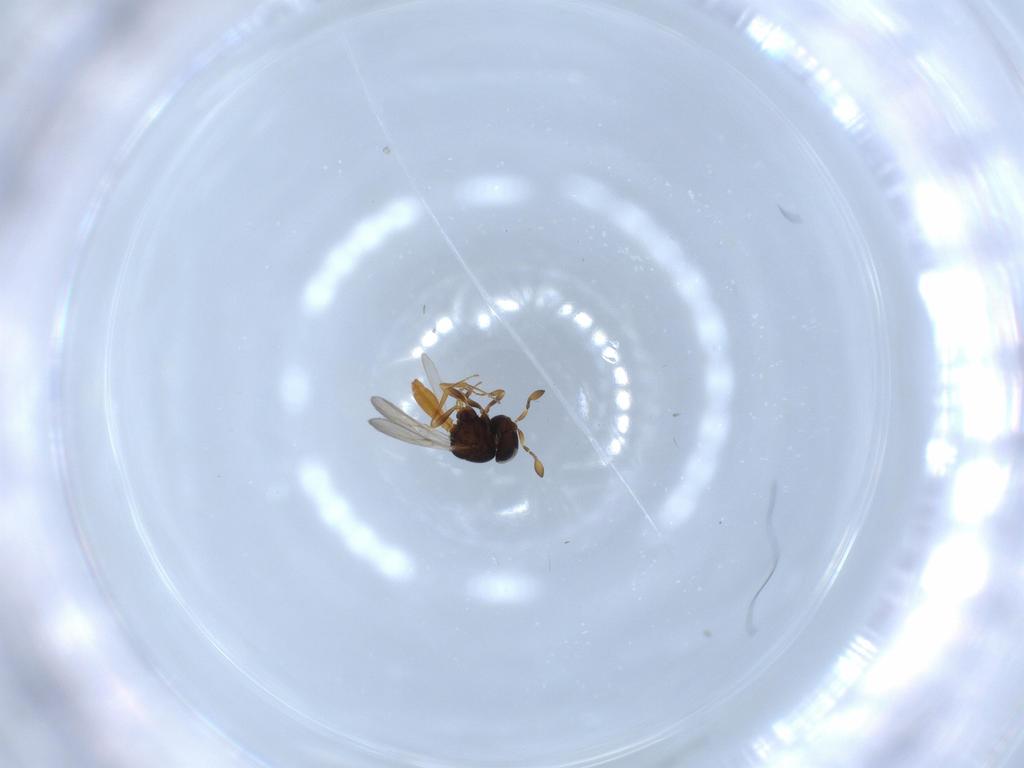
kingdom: Animalia
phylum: Arthropoda
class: Insecta
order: Hymenoptera
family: Scelionidae
